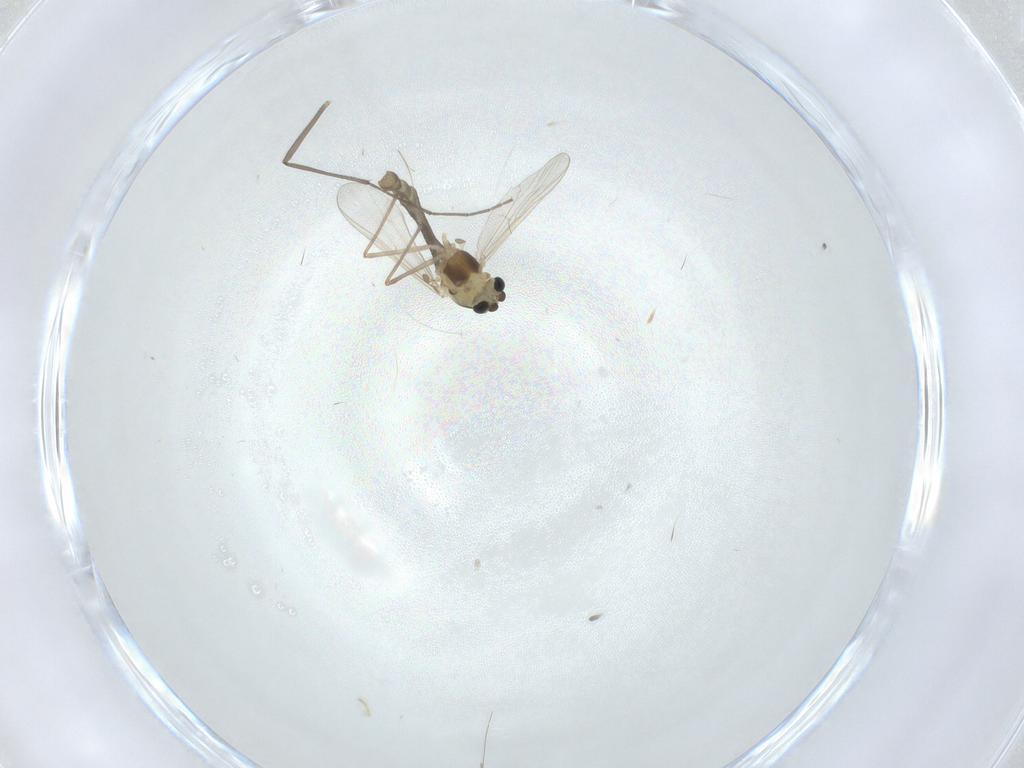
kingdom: Animalia
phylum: Arthropoda
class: Insecta
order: Diptera
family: Chironomidae
